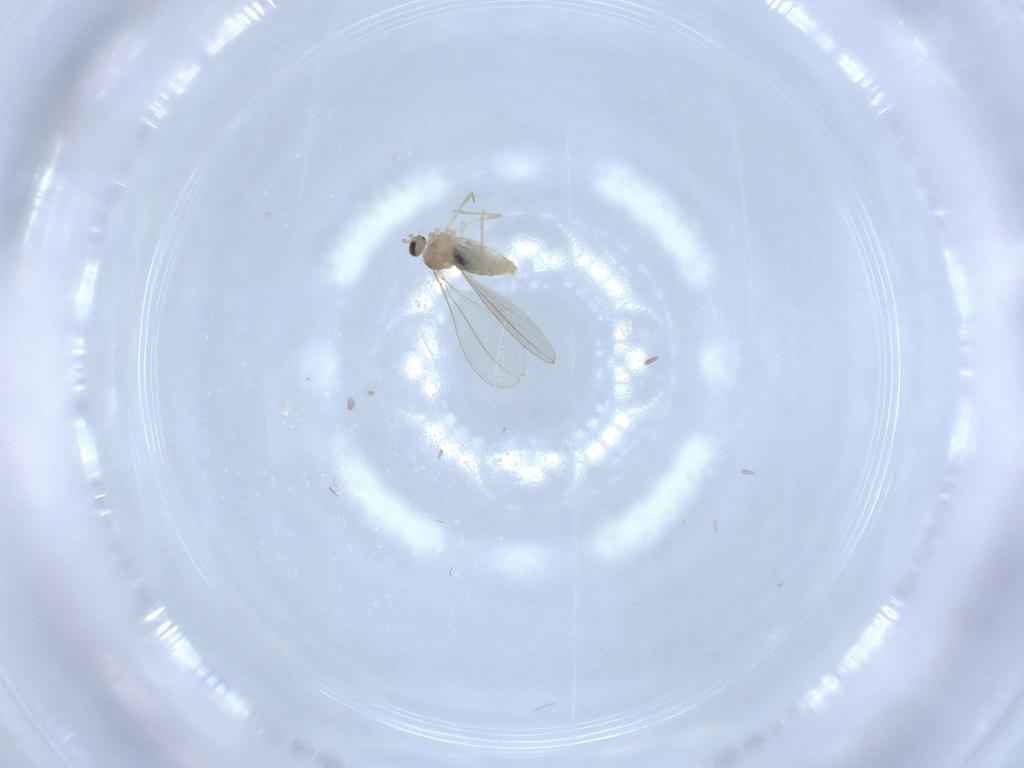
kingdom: Animalia
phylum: Arthropoda
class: Insecta
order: Diptera
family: Cecidomyiidae
